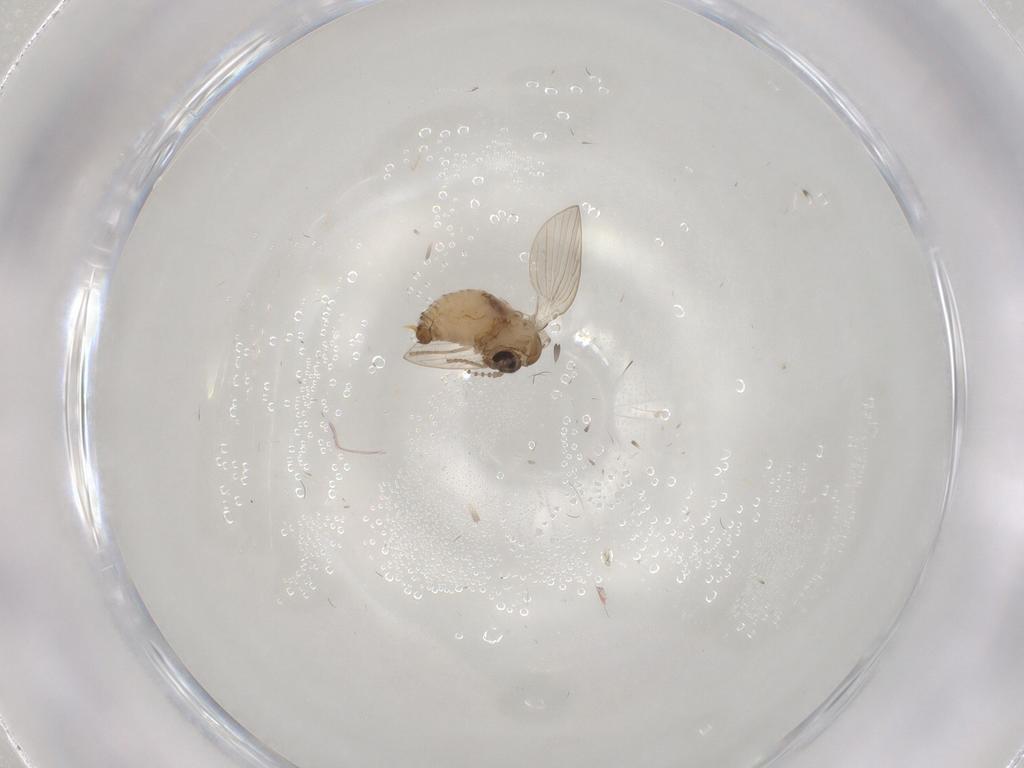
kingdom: Animalia
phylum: Arthropoda
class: Insecta
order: Diptera
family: Psychodidae
